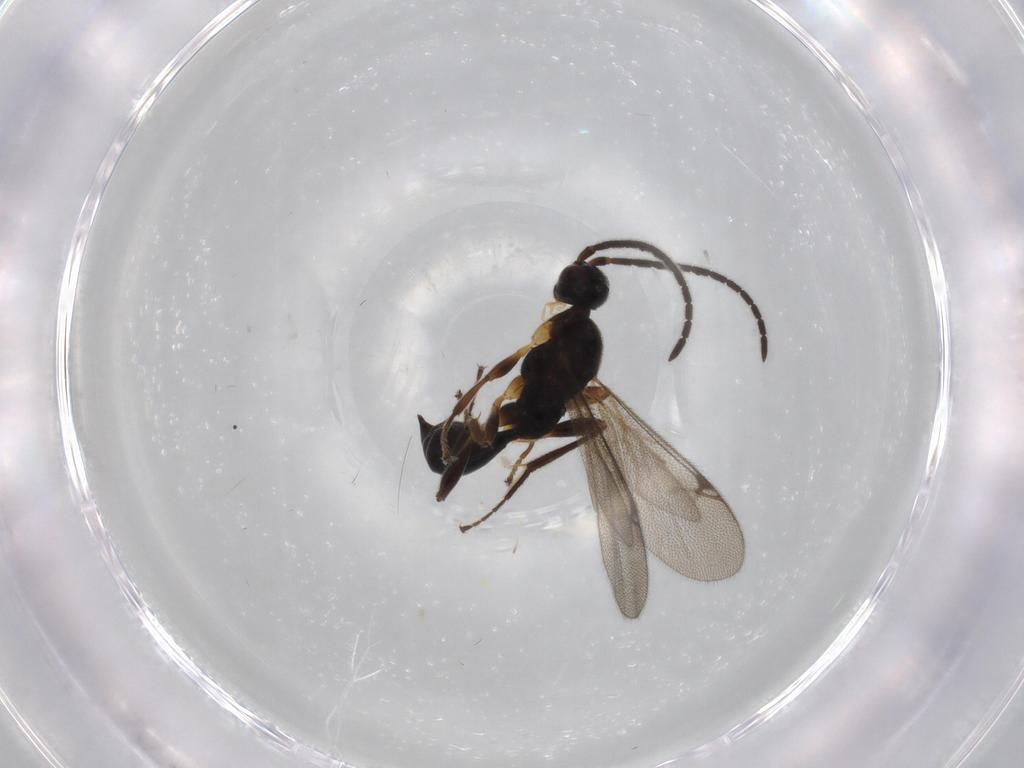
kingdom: Animalia
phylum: Arthropoda
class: Insecta
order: Hymenoptera
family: Proctotrupidae
